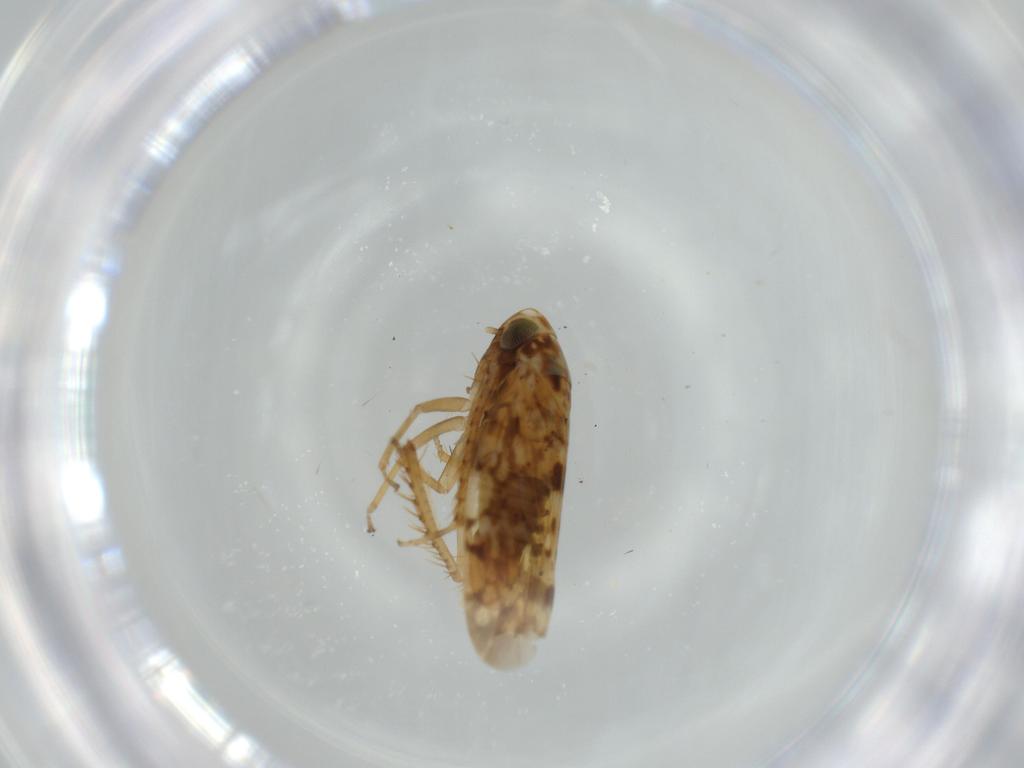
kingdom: Animalia
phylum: Arthropoda
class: Insecta
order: Hemiptera
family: Cicadellidae
